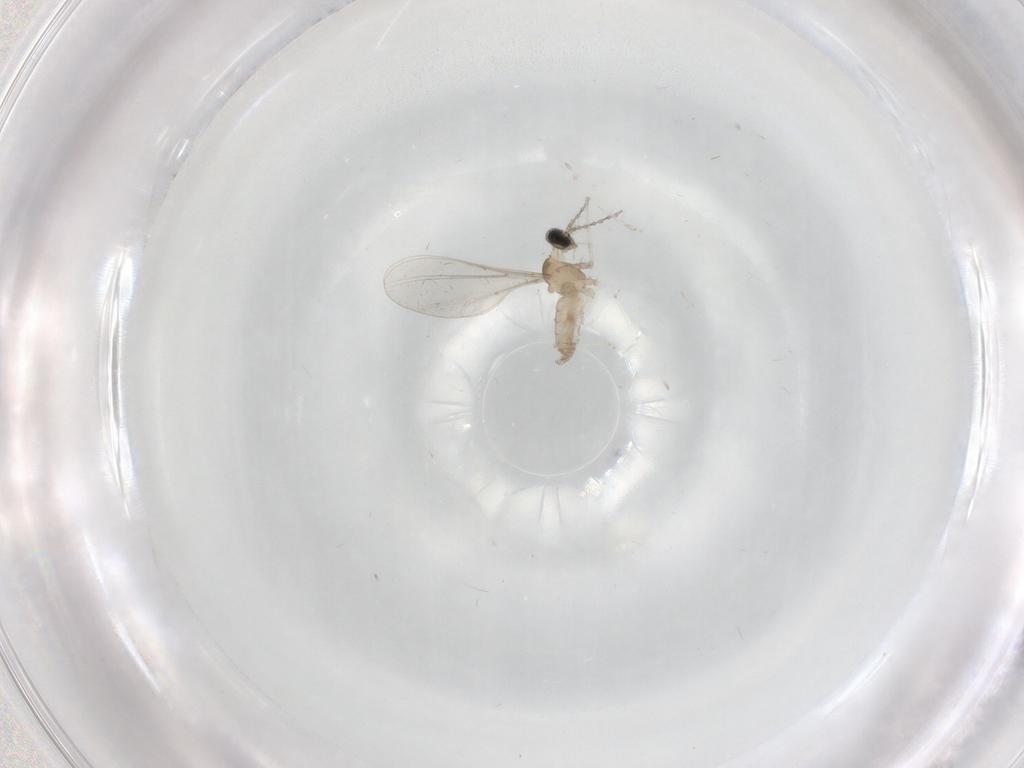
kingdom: Animalia
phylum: Arthropoda
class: Insecta
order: Diptera
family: Cecidomyiidae
